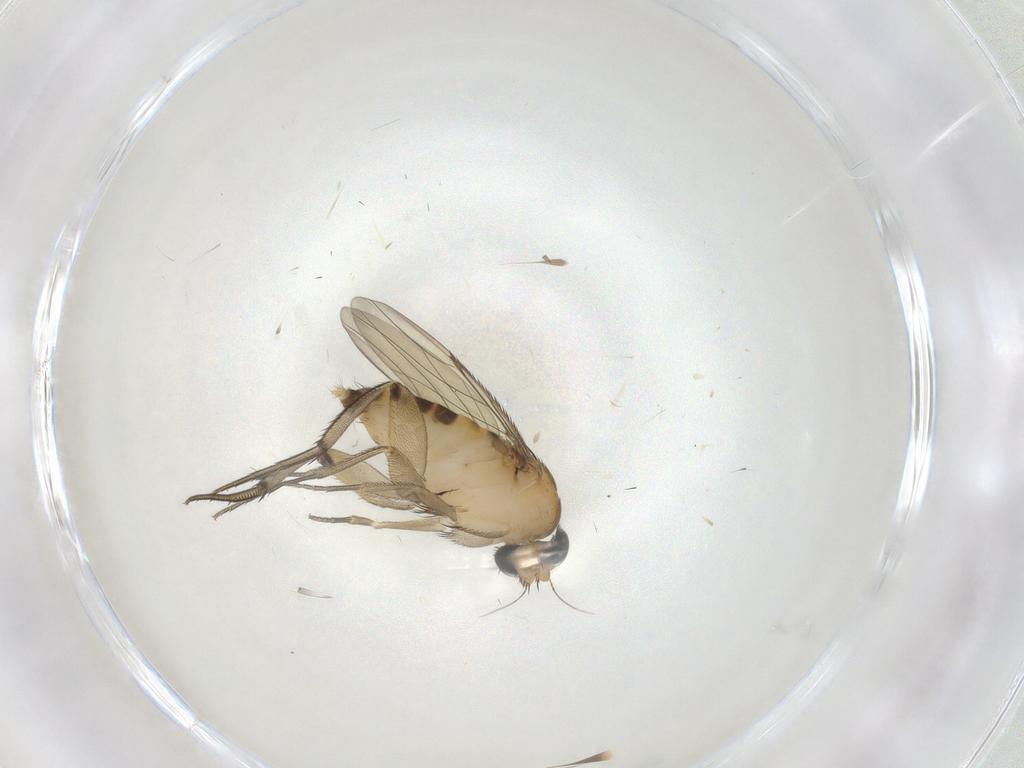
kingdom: Animalia
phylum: Arthropoda
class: Insecta
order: Diptera
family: Phoridae
